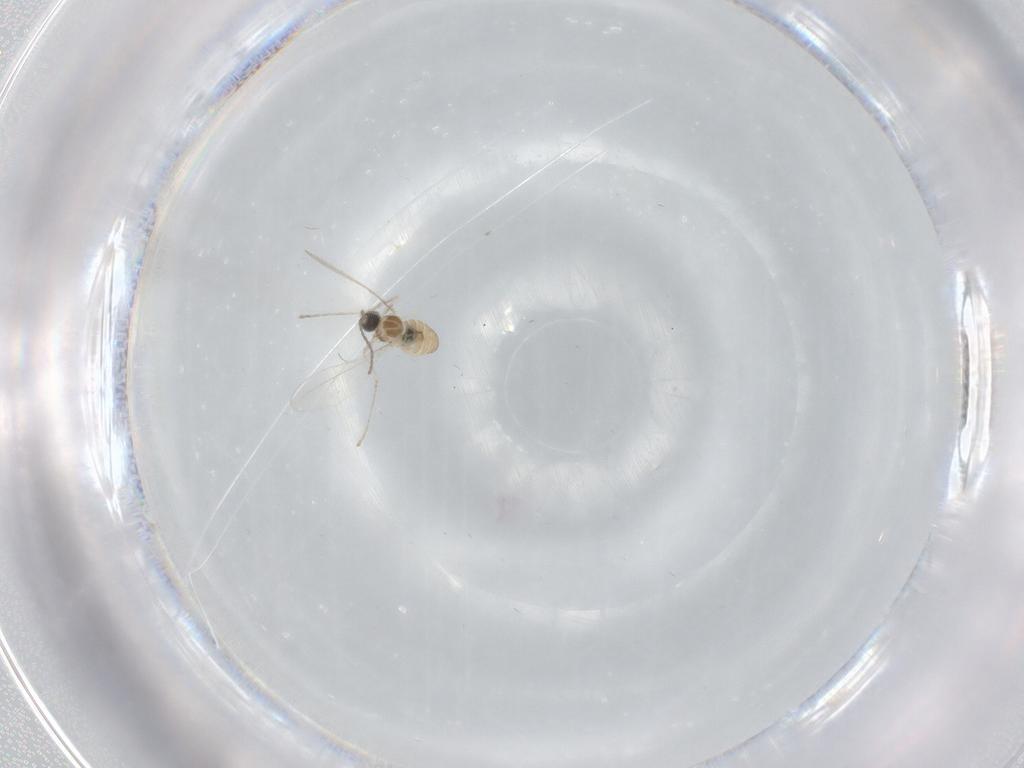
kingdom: Animalia
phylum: Arthropoda
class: Insecta
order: Diptera
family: Cecidomyiidae
